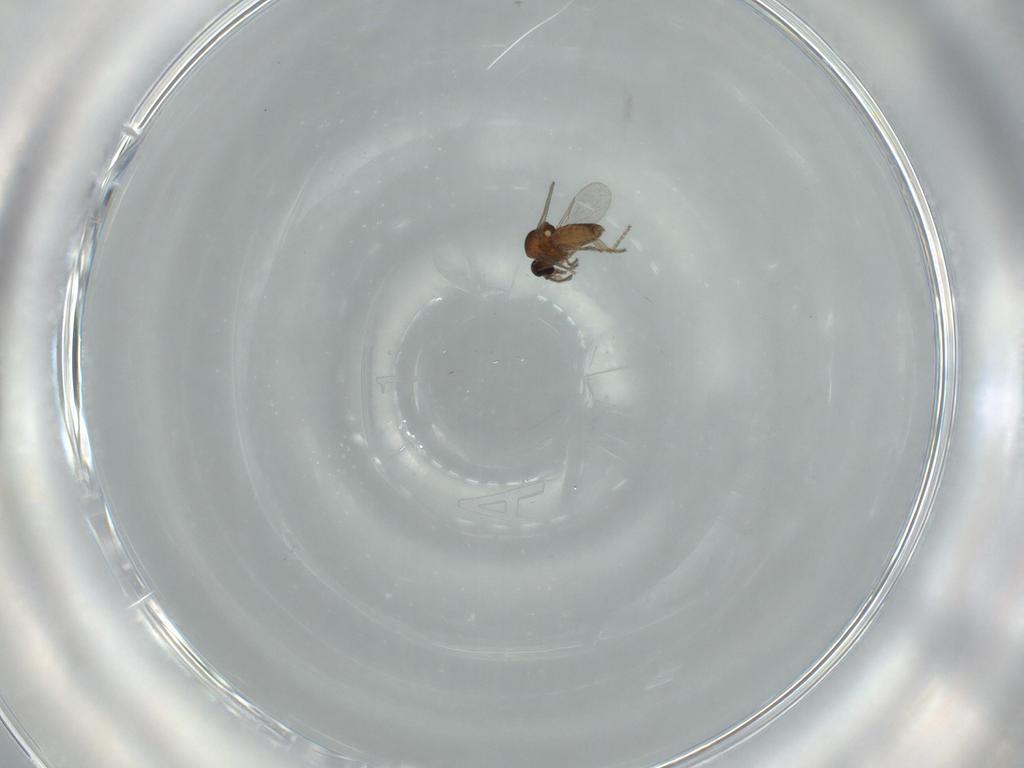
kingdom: Animalia
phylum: Arthropoda
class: Insecta
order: Diptera
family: Ceratopogonidae
